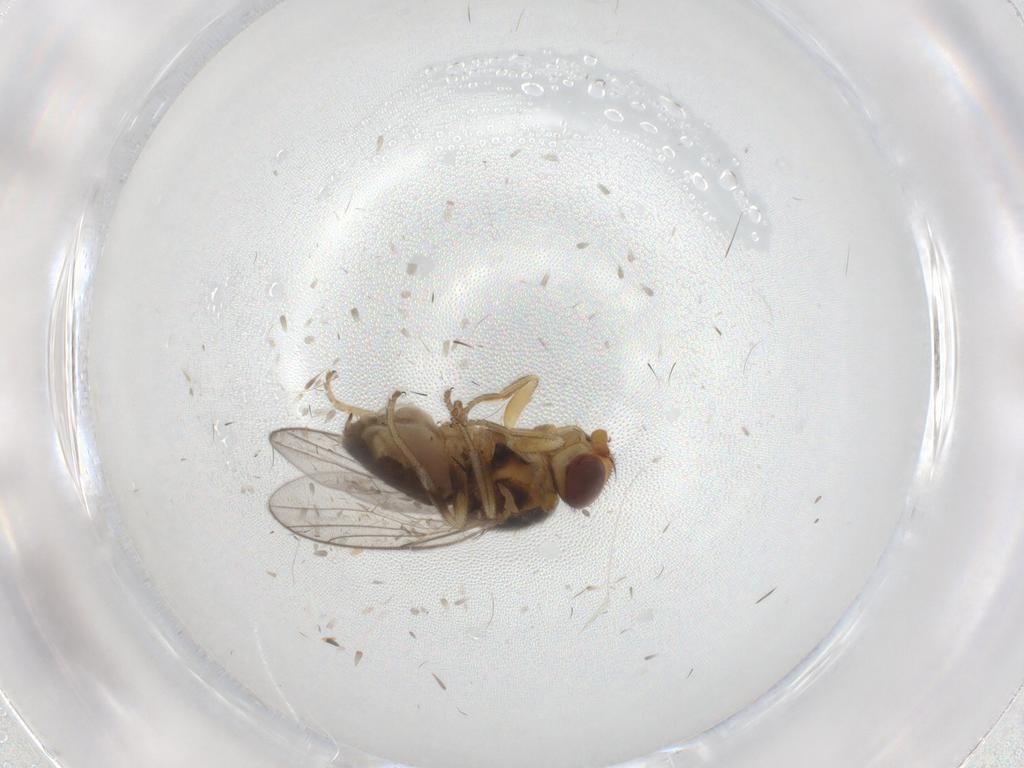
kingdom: Animalia
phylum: Arthropoda
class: Insecta
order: Diptera
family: Chloropidae
